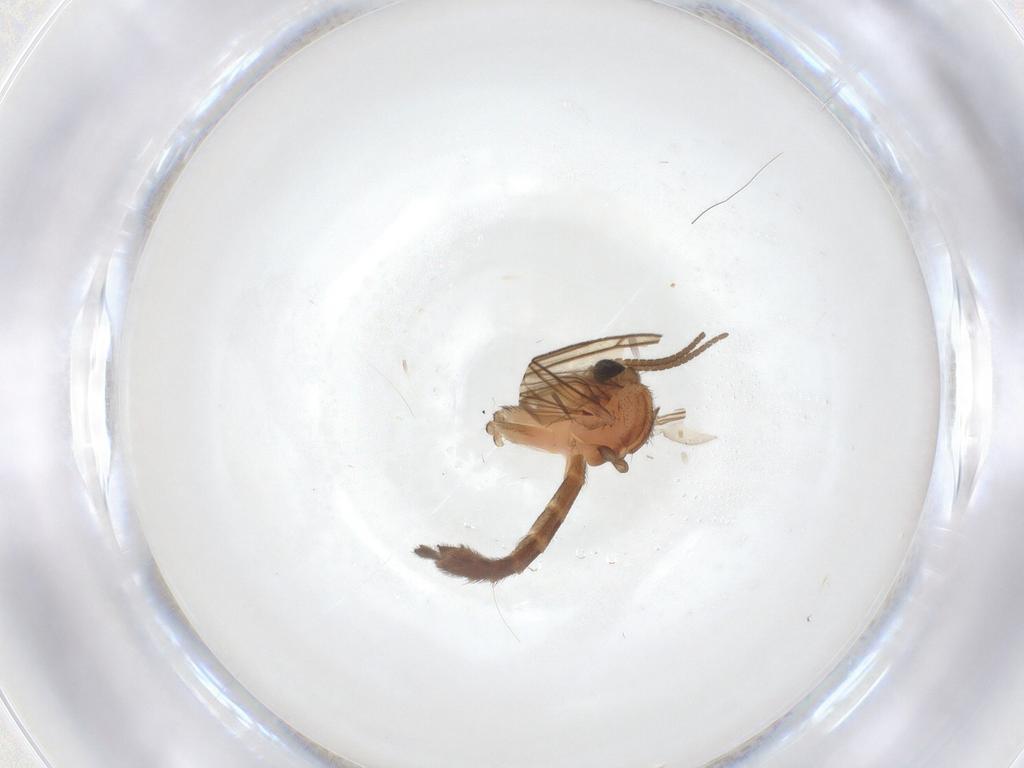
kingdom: Animalia
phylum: Arthropoda
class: Insecta
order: Diptera
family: Keroplatidae
